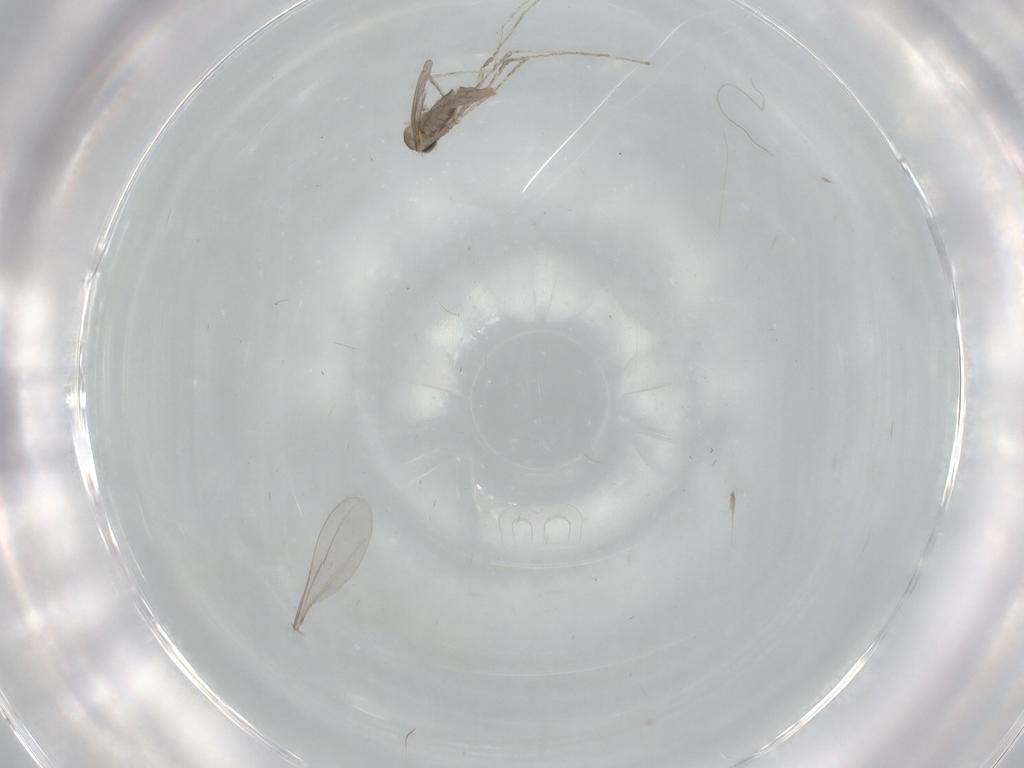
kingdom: Animalia
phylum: Arthropoda
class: Insecta
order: Diptera
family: Cecidomyiidae
